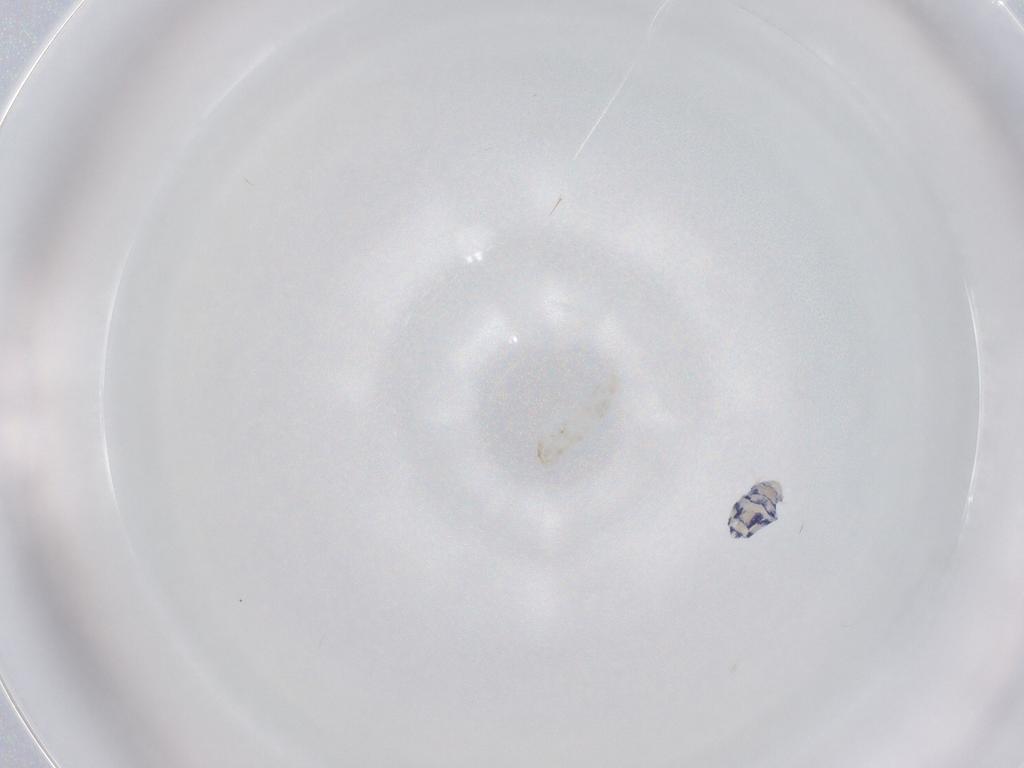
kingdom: Animalia
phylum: Arthropoda
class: Collembola
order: Entomobryomorpha
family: Entomobryidae
